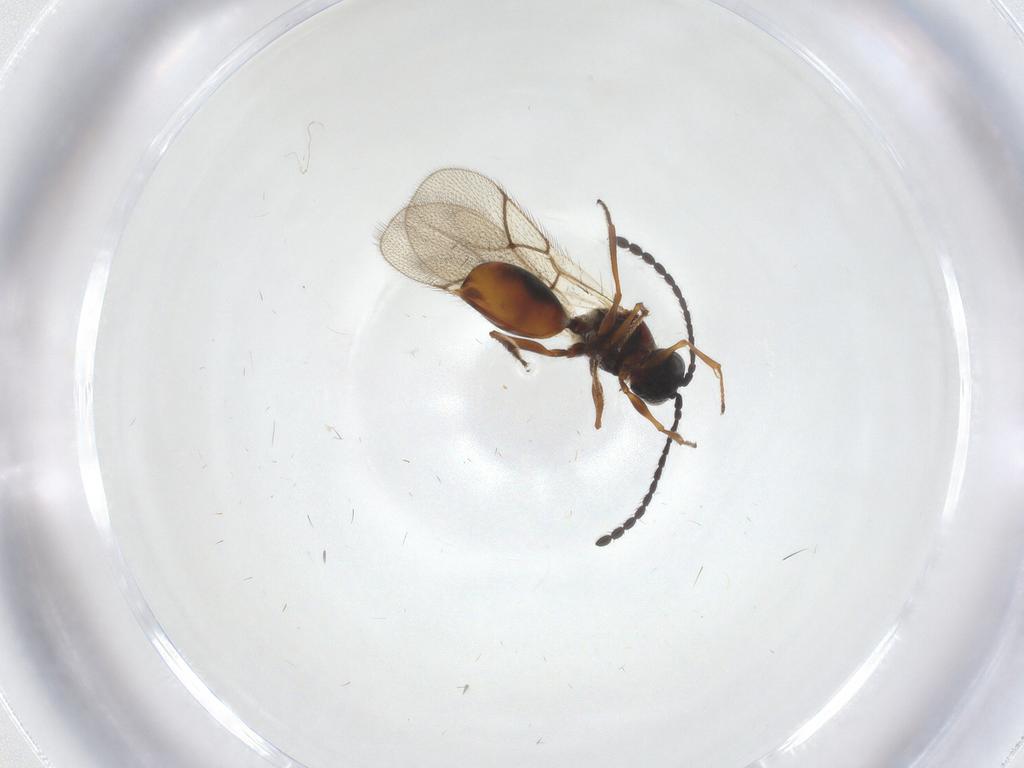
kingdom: Animalia
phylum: Arthropoda
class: Insecta
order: Hymenoptera
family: Figitidae
